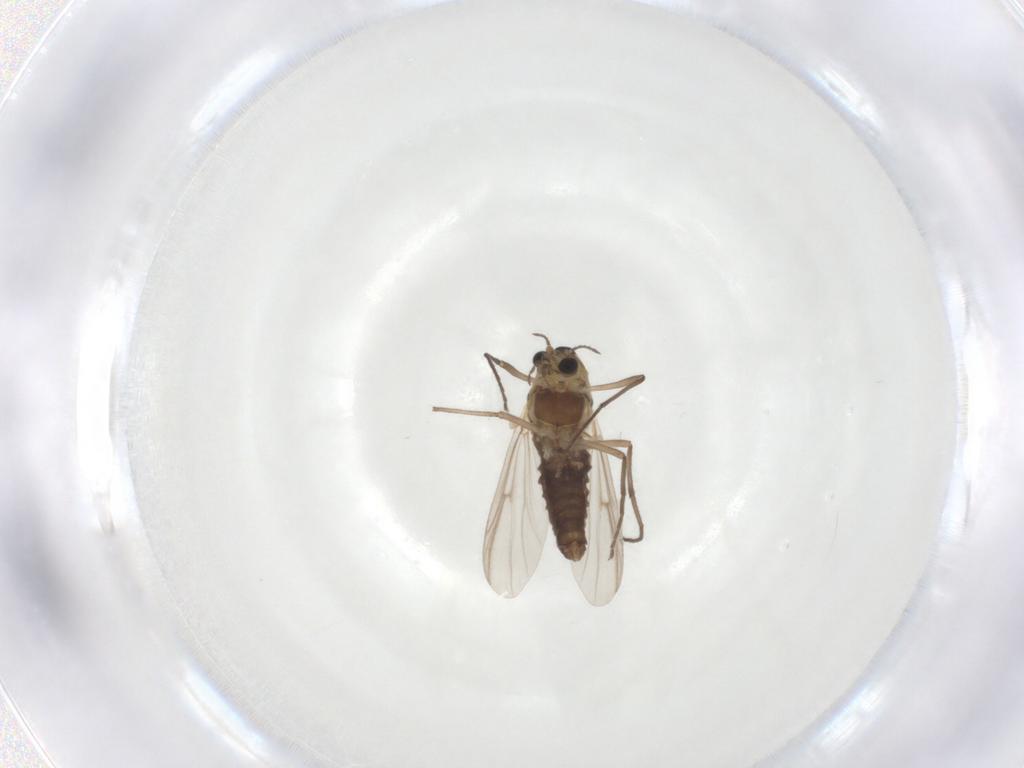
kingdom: Animalia
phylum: Arthropoda
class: Insecta
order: Diptera
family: Chironomidae
